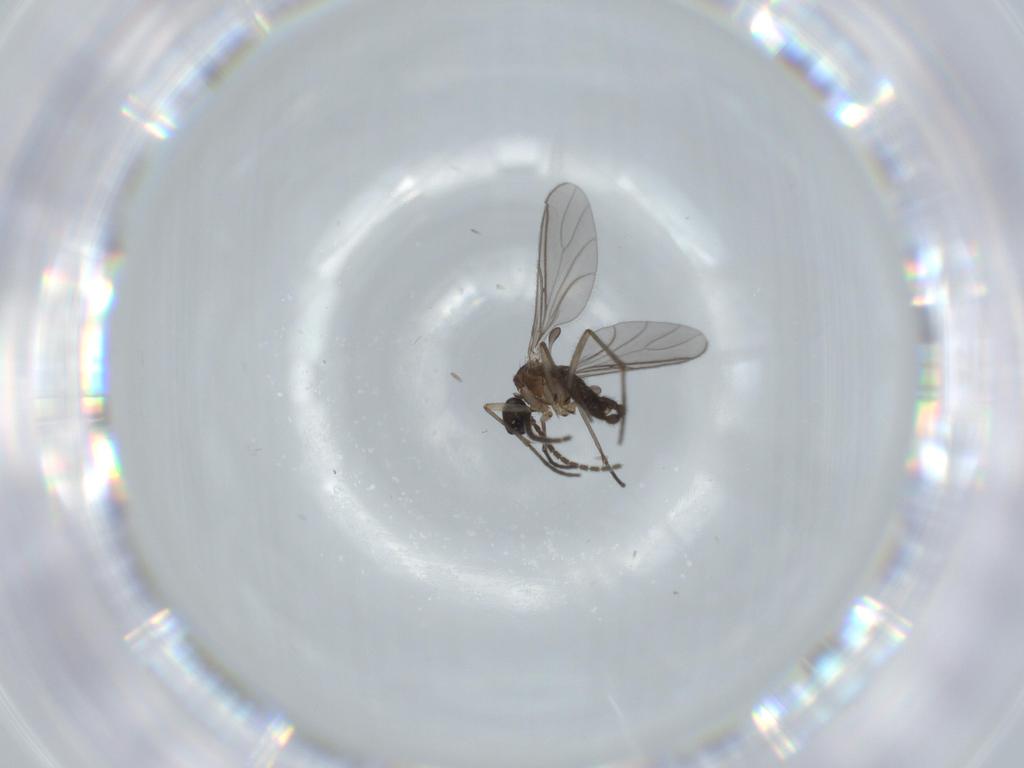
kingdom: Animalia
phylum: Arthropoda
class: Insecta
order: Diptera
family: Sciaridae
